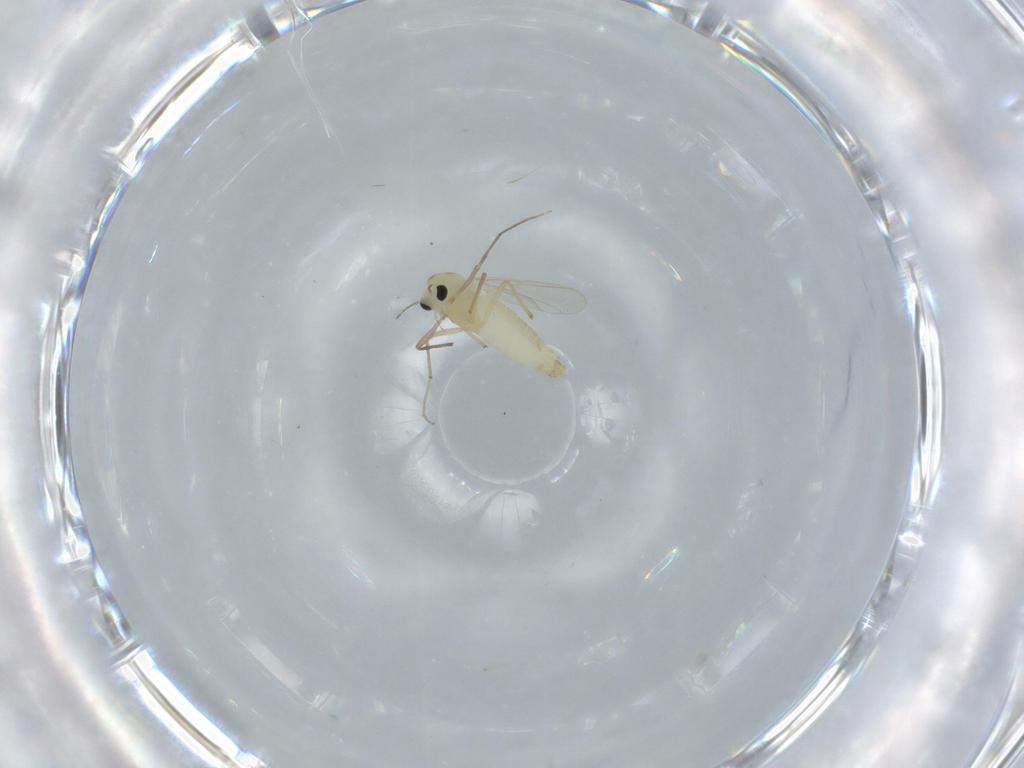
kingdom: Animalia
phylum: Arthropoda
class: Insecta
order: Diptera
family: Chironomidae
